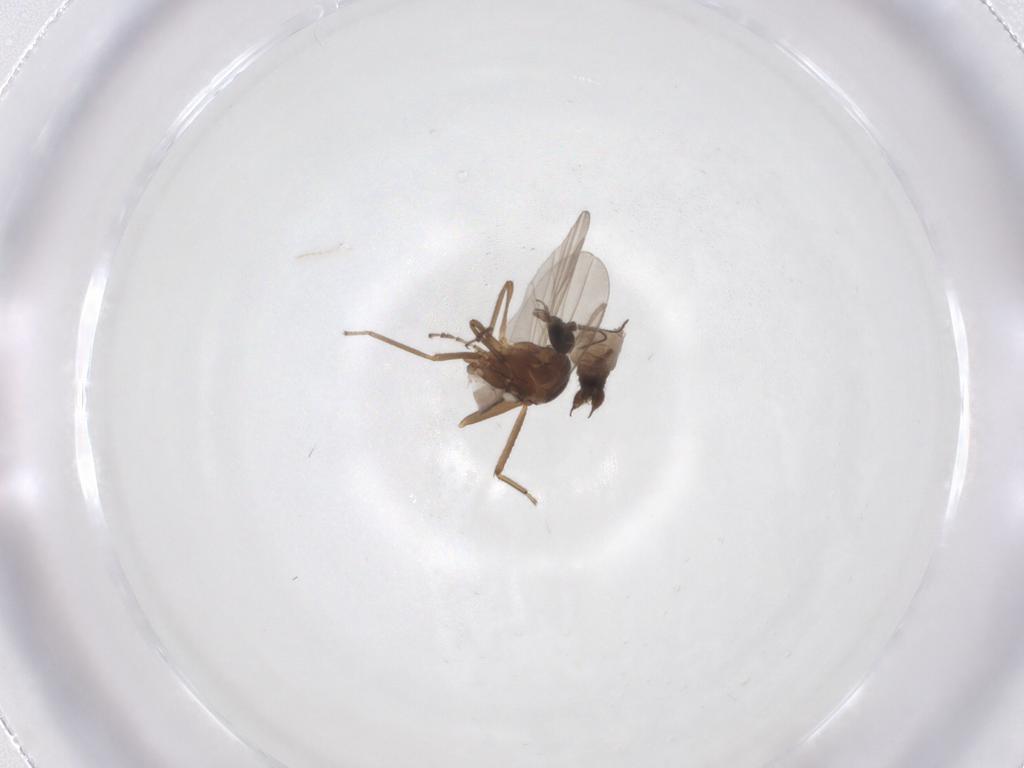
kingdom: Animalia
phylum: Arthropoda
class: Insecta
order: Diptera
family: Ceratopogonidae
